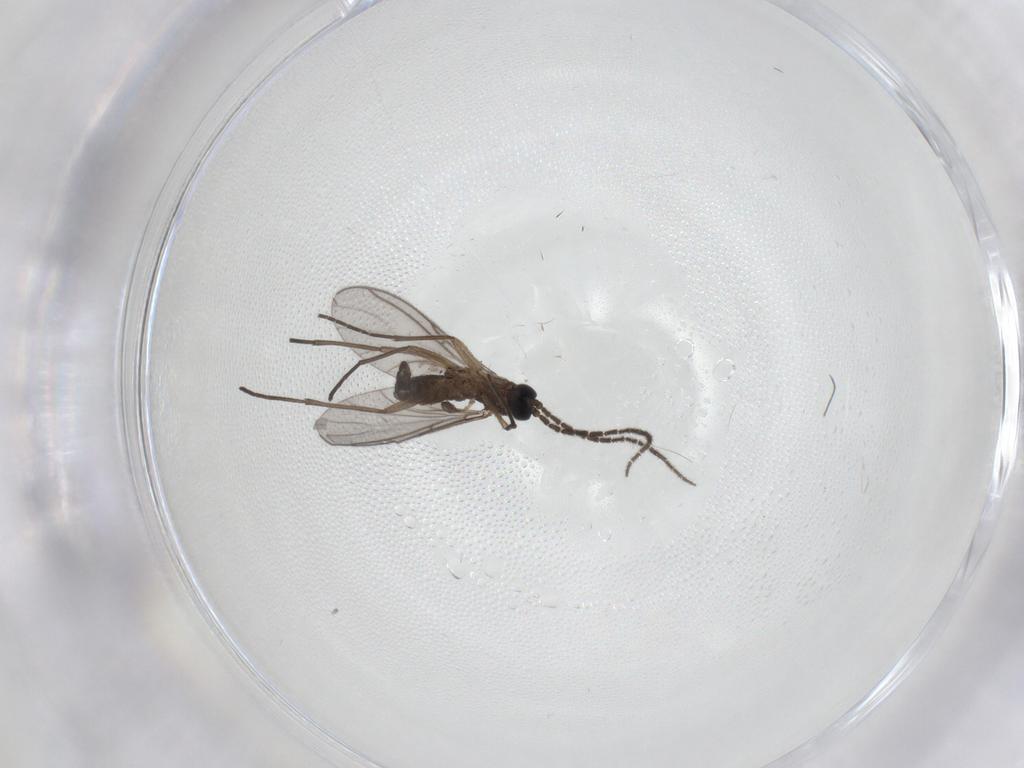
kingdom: Animalia
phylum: Arthropoda
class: Insecta
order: Diptera
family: Sciaridae
